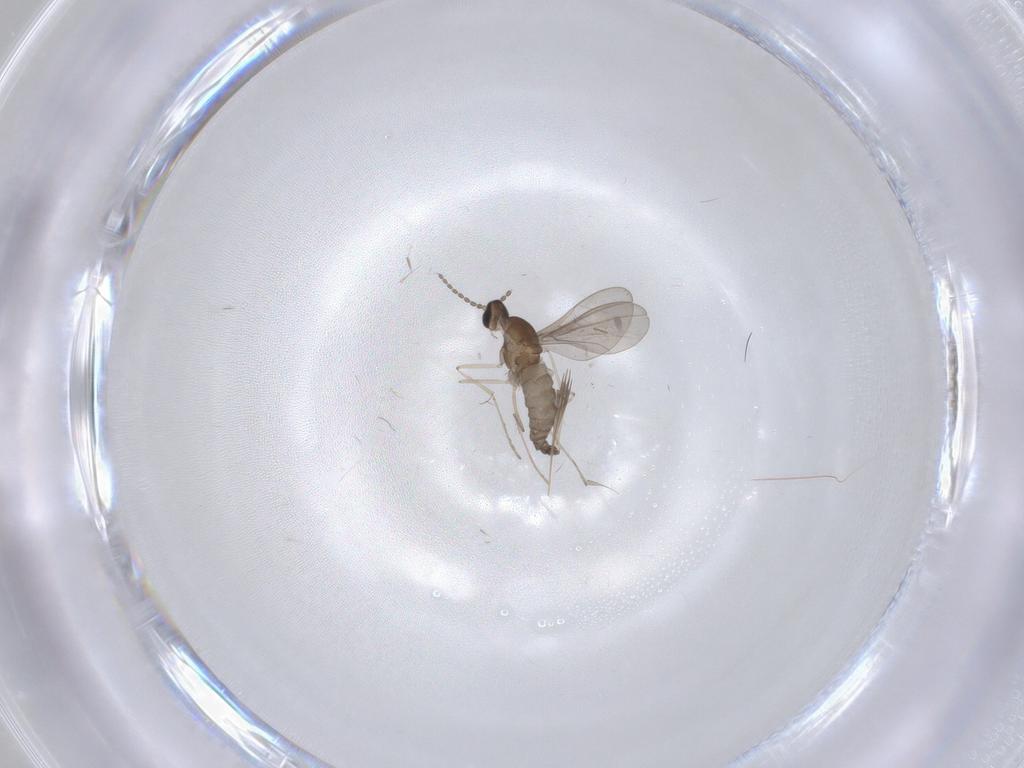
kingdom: Animalia
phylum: Arthropoda
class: Insecta
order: Diptera
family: Cecidomyiidae
